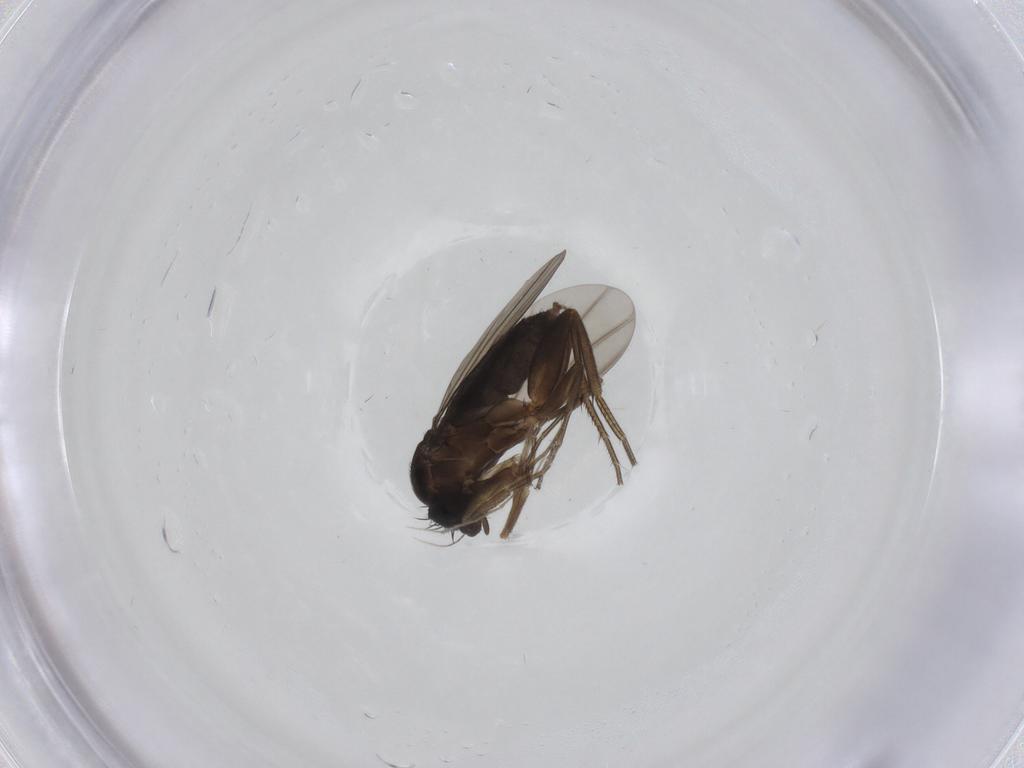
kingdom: Animalia
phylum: Arthropoda
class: Insecta
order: Diptera
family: Phoridae
